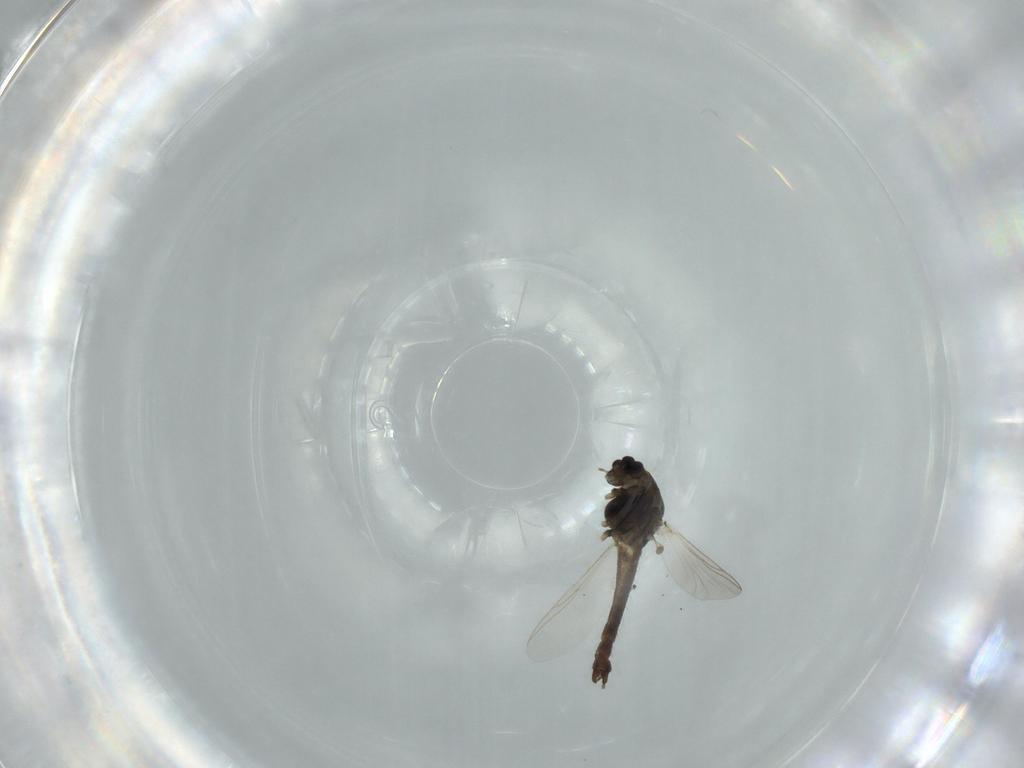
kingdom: Animalia
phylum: Arthropoda
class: Insecta
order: Diptera
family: Chironomidae
